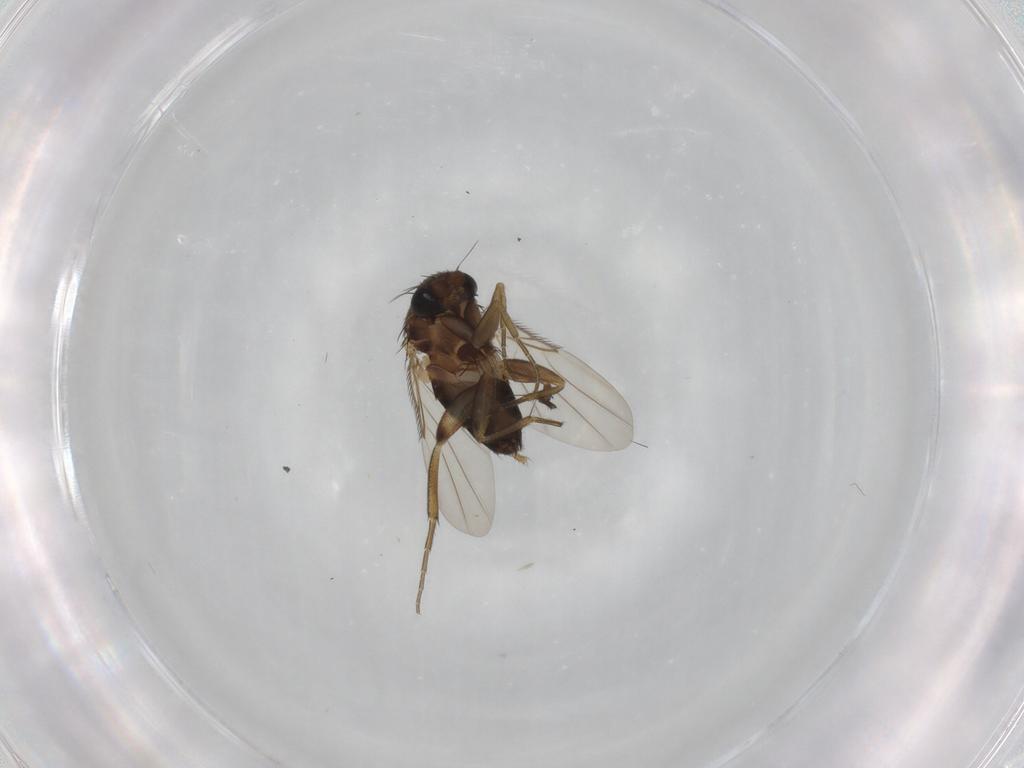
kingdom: Animalia
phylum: Arthropoda
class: Insecta
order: Diptera
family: Phoridae
